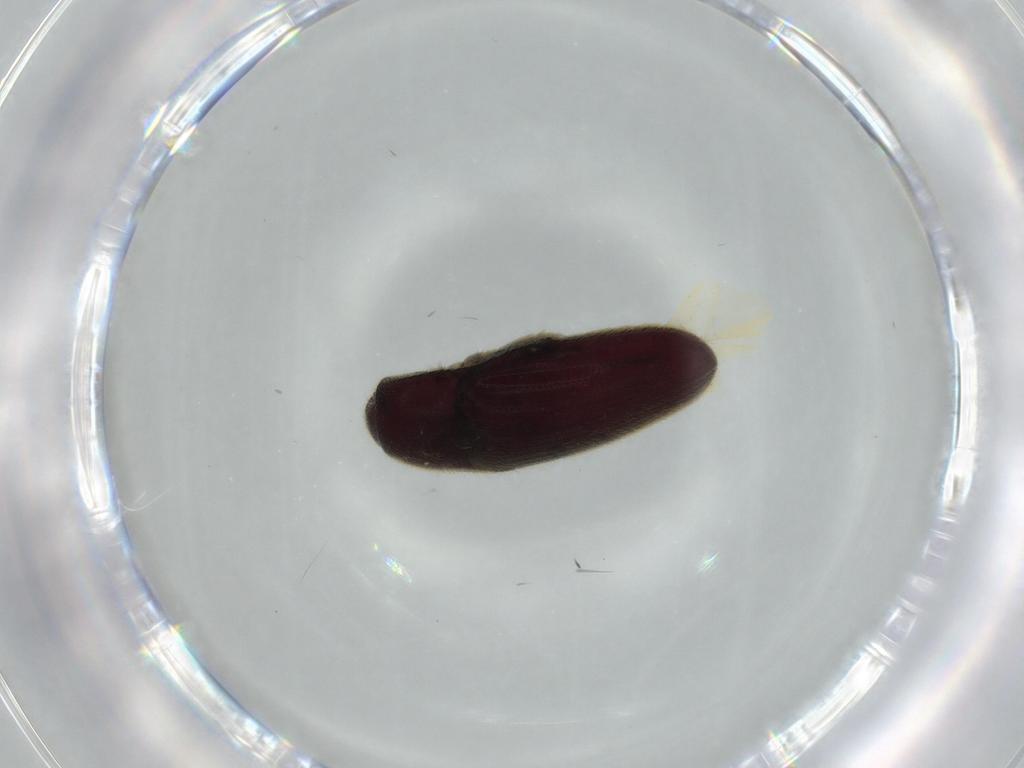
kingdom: Animalia
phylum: Arthropoda
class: Insecta
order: Coleoptera
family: Throscidae
